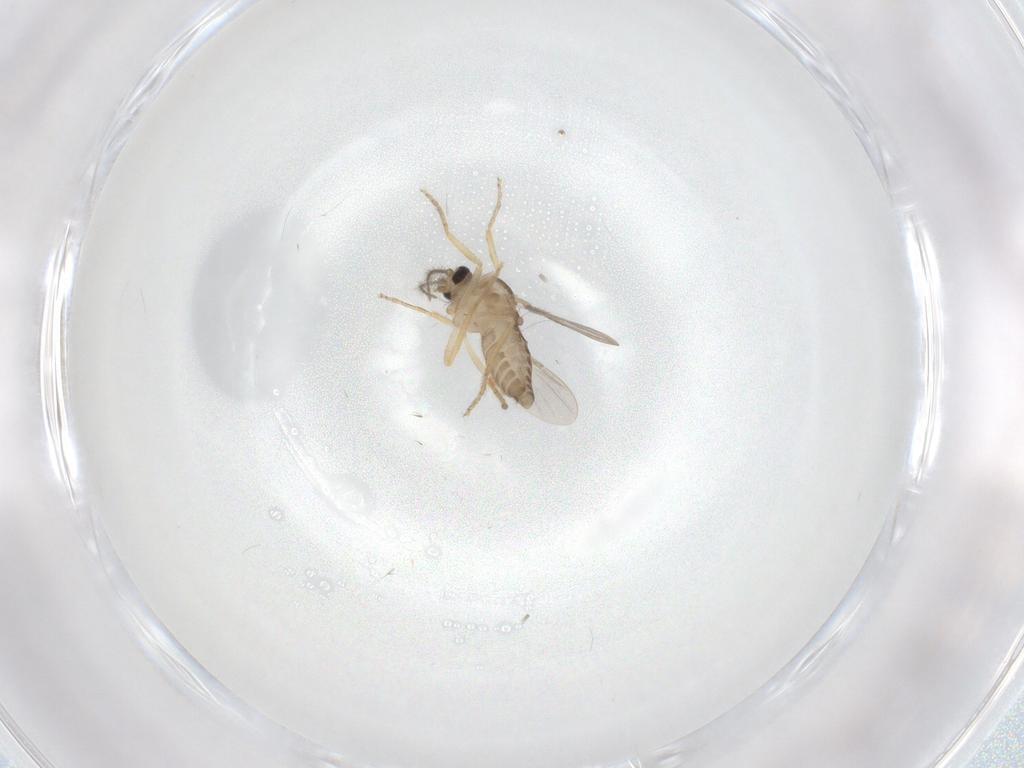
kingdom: Animalia
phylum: Arthropoda
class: Insecta
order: Diptera
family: Ceratopogonidae
